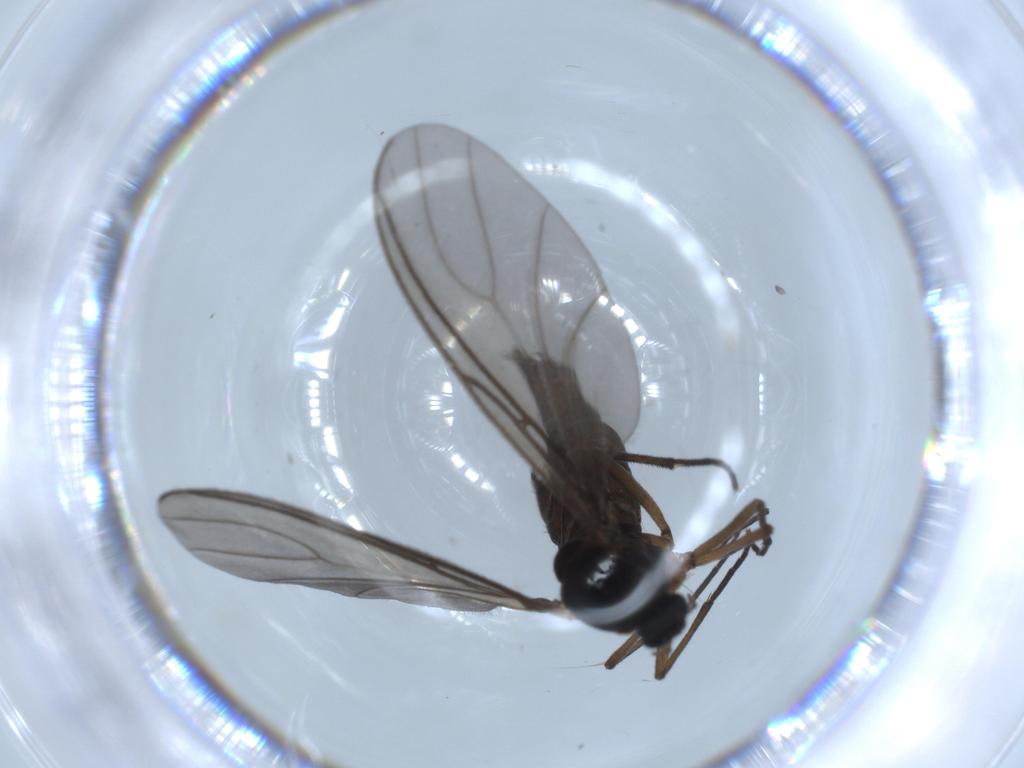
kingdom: Animalia
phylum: Arthropoda
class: Insecta
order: Diptera
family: Sciaridae
